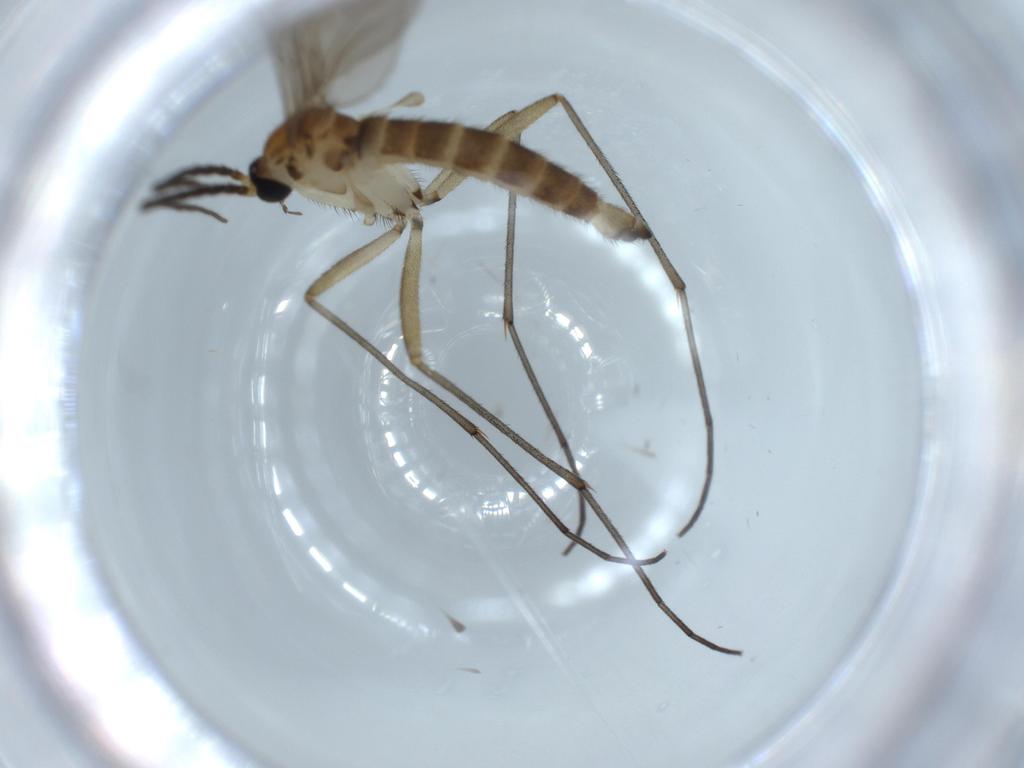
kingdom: Animalia
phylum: Arthropoda
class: Insecta
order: Diptera
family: Sciaridae
